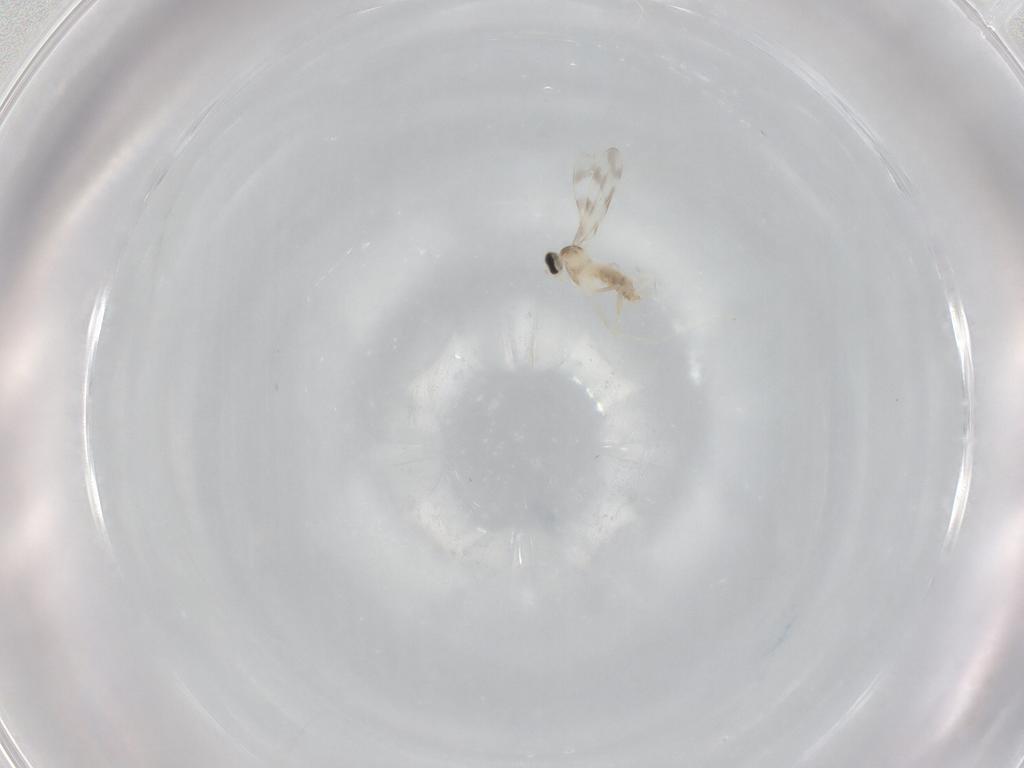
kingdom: Animalia
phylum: Arthropoda
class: Insecta
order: Diptera
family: Cecidomyiidae
